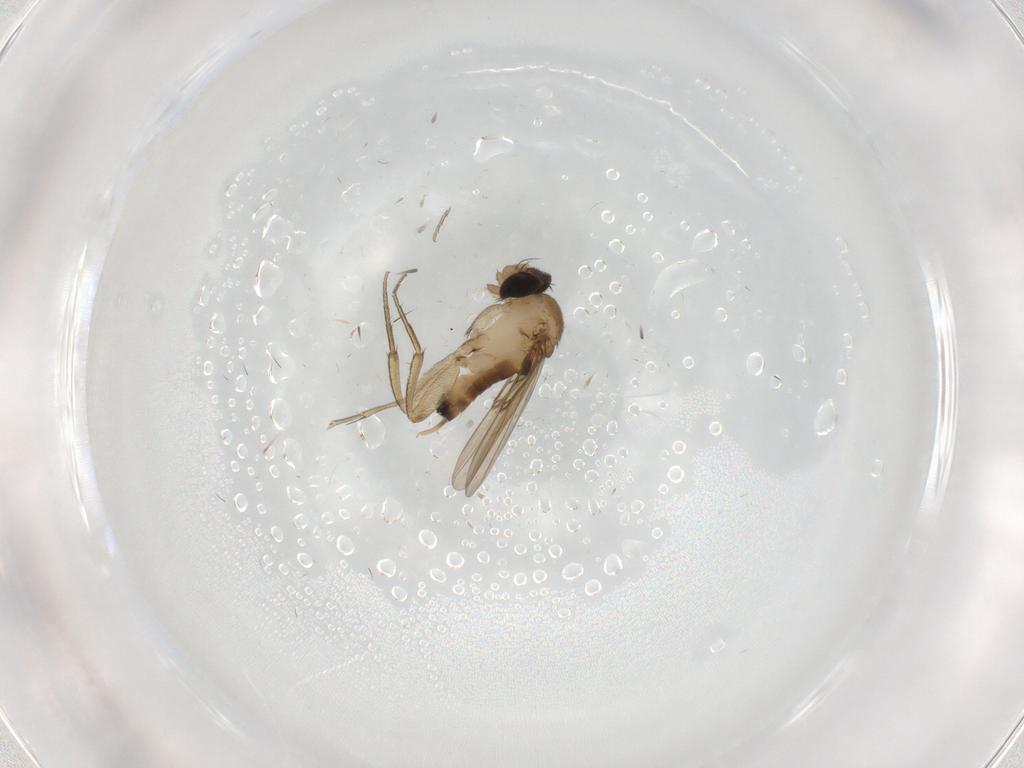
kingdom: Animalia
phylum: Arthropoda
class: Insecta
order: Diptera
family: Phoridae
